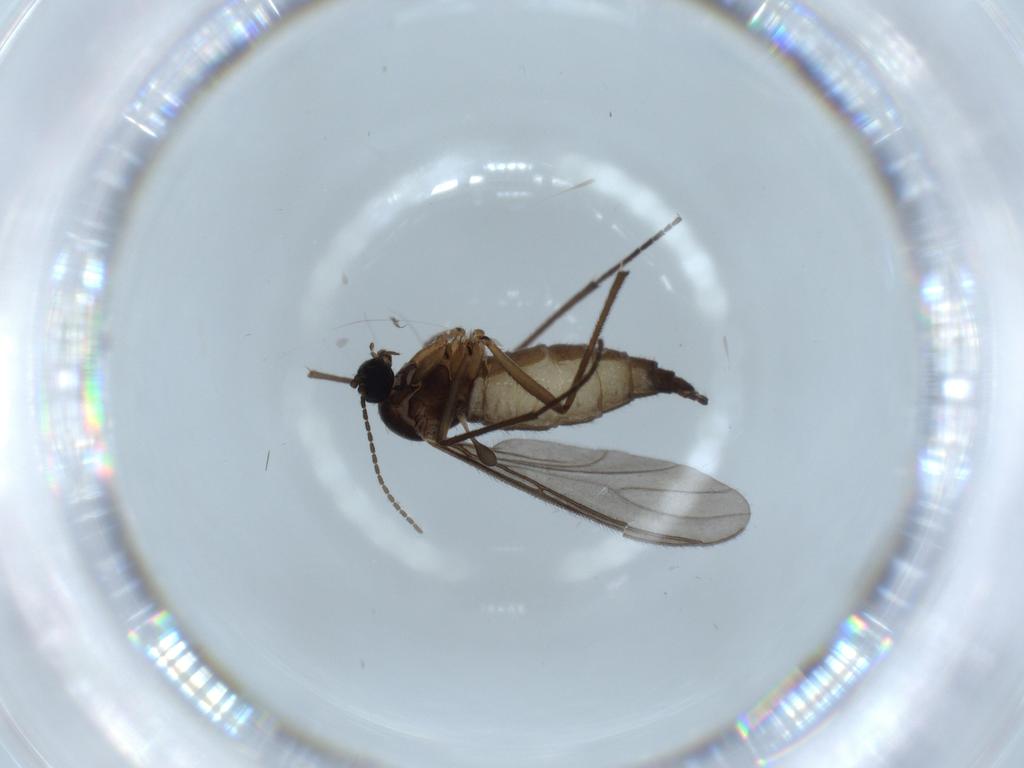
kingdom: Animalia
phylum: Arthropoda
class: Insecta
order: Diptera
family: Sciaridae
